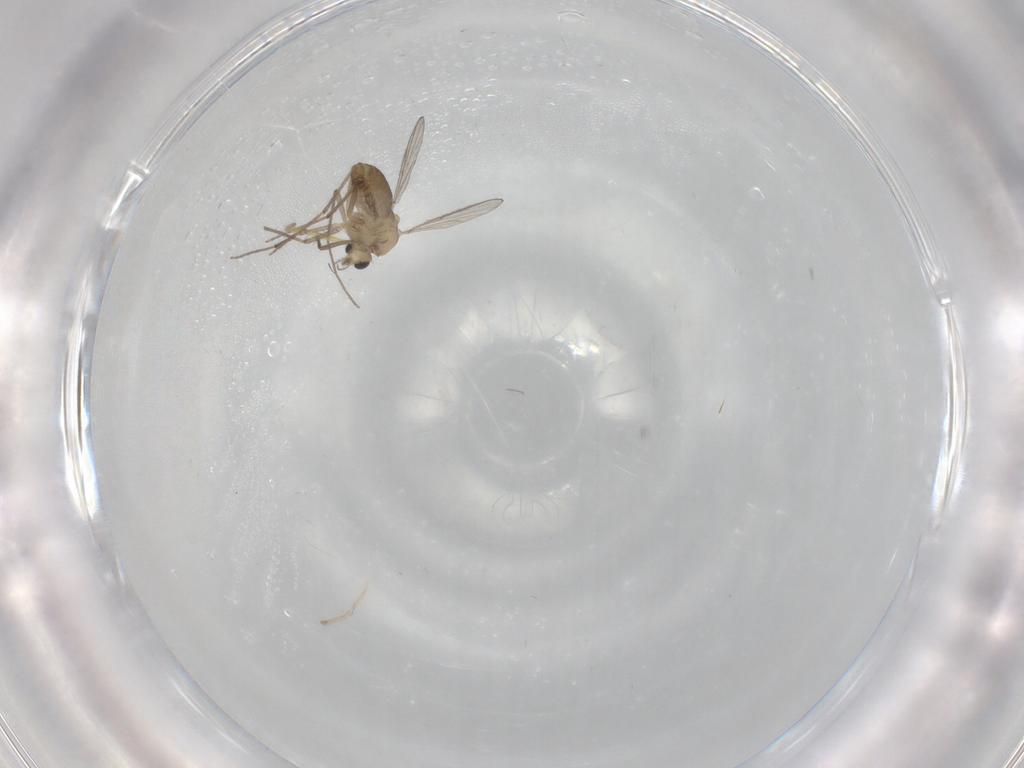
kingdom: Animalia
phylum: Arthropoda
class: Insecta
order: Diptera
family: Chironomidae
